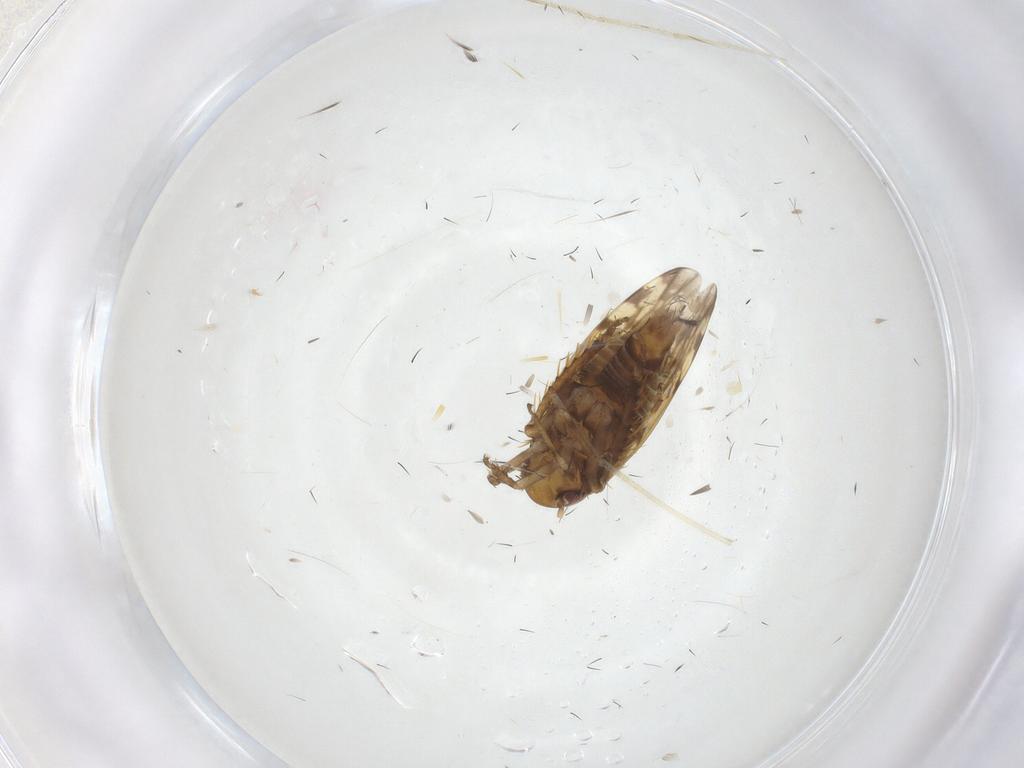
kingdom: Animalia
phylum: Arthropoda
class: Insecta
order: Hemiptera
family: Cicadellidae
